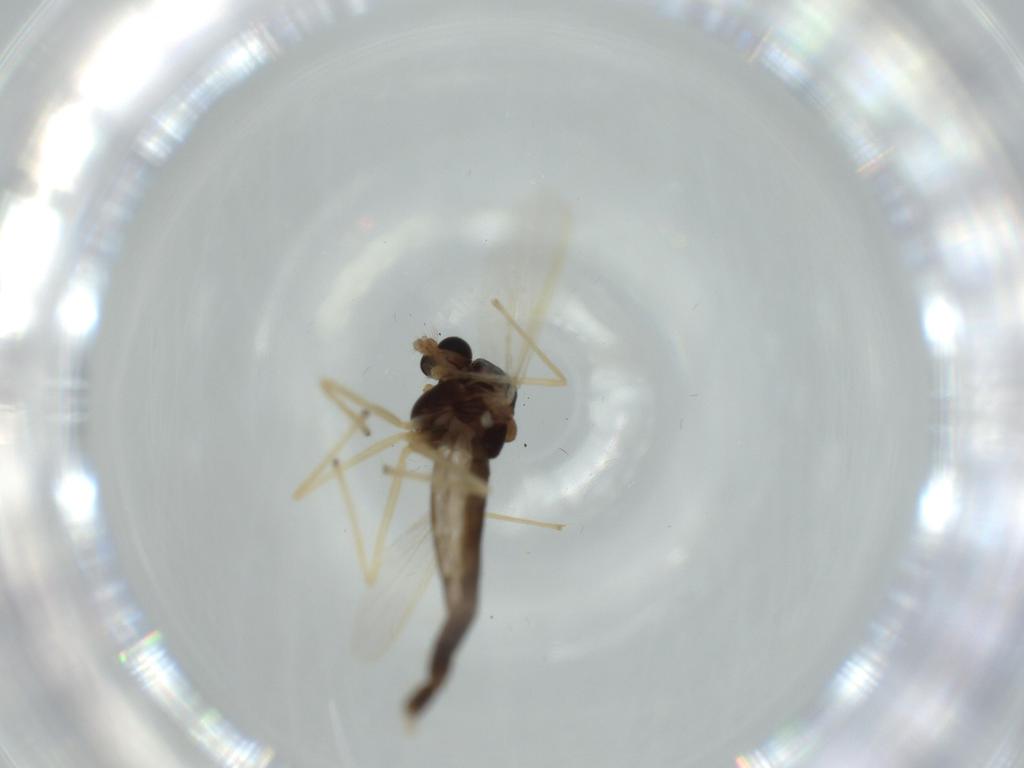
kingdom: Animalia
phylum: Arthropoda
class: Insecta
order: Diptera
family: Chironomidae
